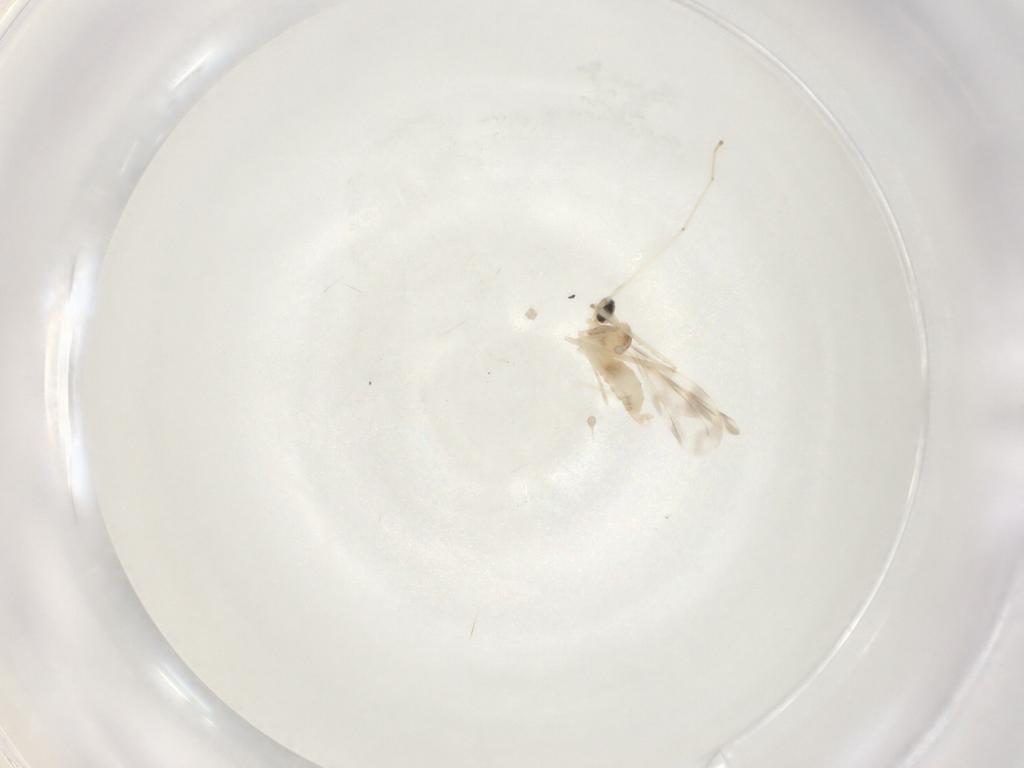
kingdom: Animalia
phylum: Arthropoda
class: Insecta
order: Diptera
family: Cecidomyiidae
